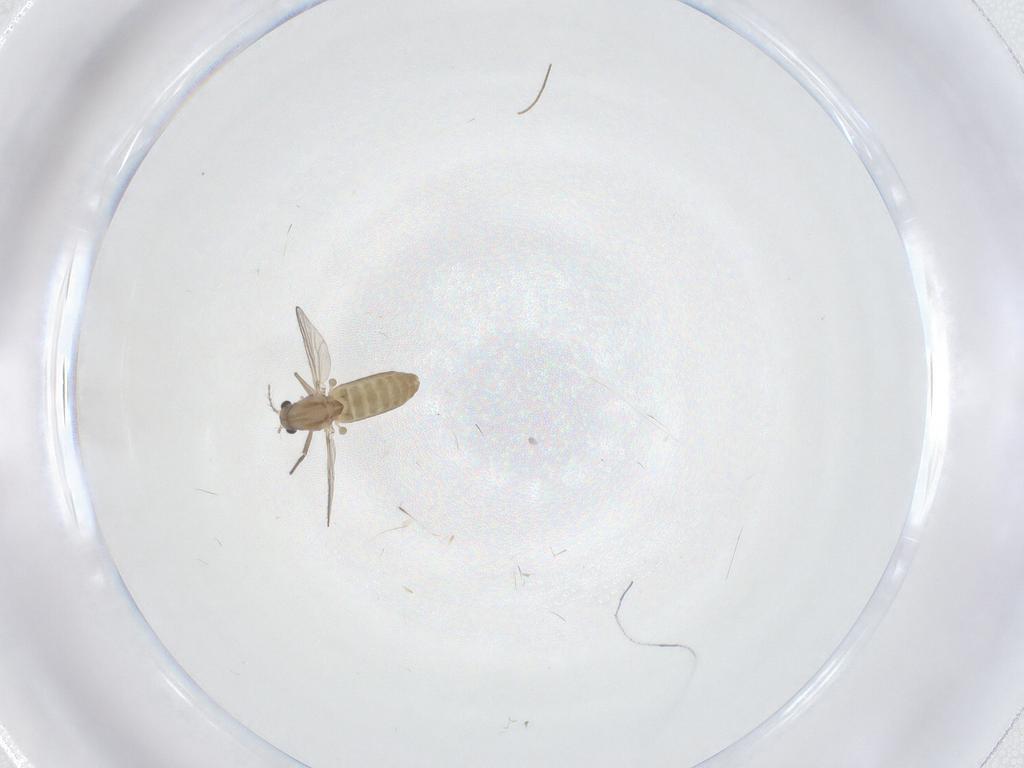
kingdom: Animalia
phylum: Arthropoda
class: Insecta
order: Diptera
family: Chironomidae
